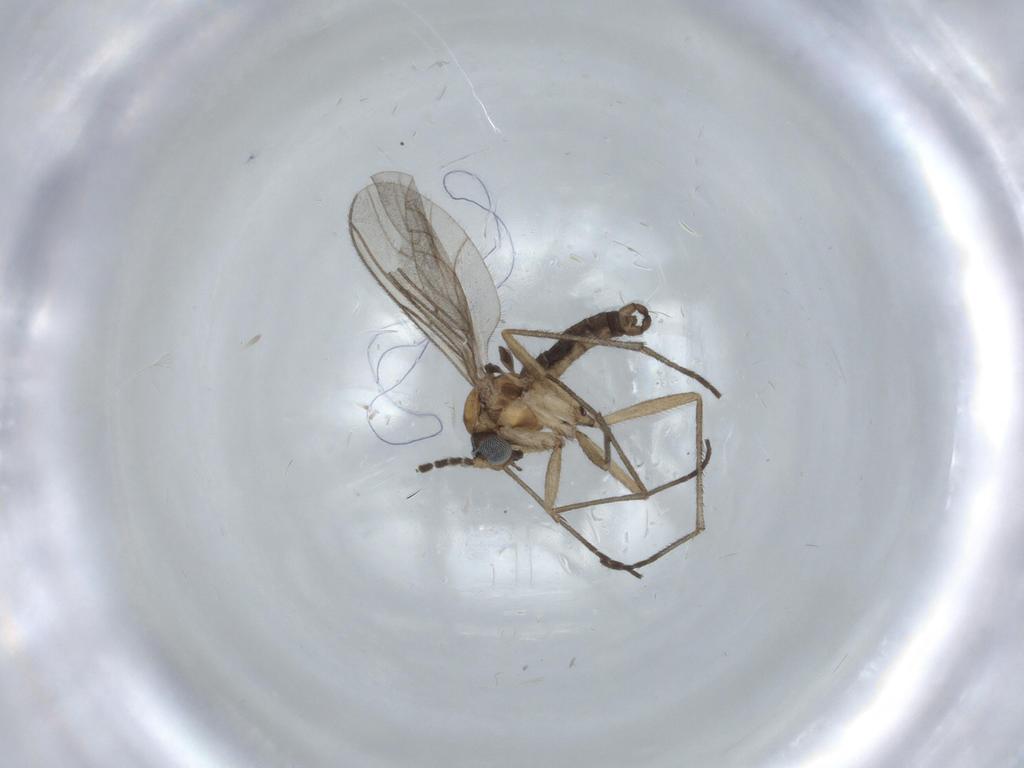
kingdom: Animalia
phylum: Arthropoda
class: Insecta
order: Diptera
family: Sciaridae
